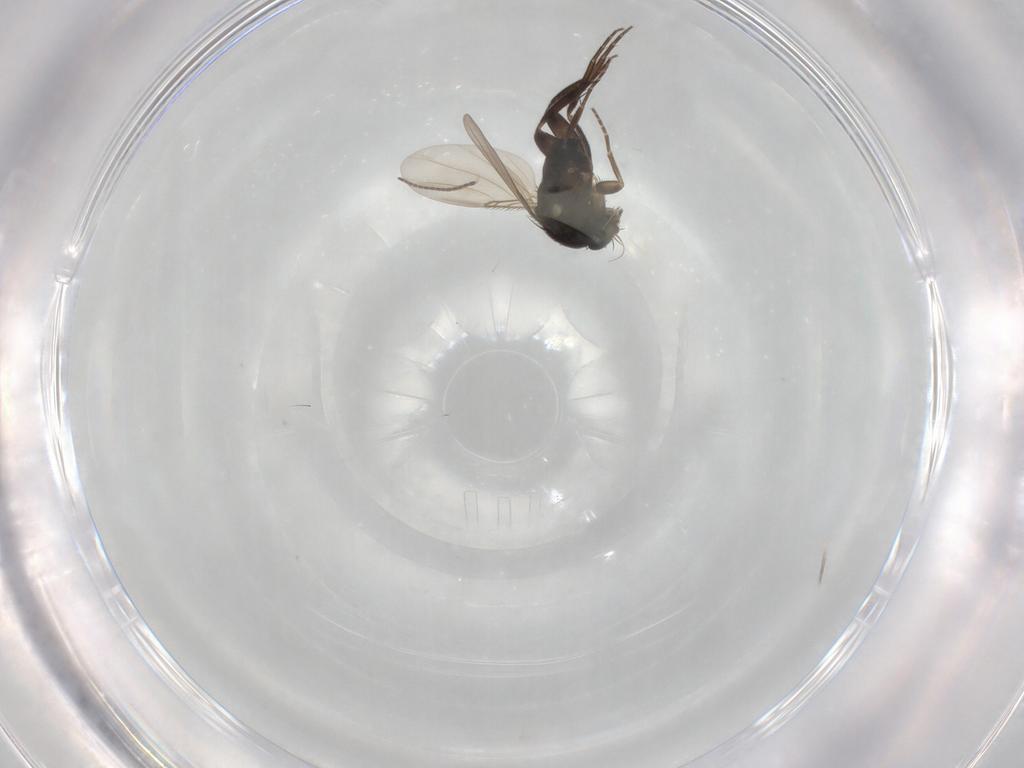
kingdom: Animalia
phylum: Arthropoda
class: Insecta
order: Diptera
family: Phoridae
